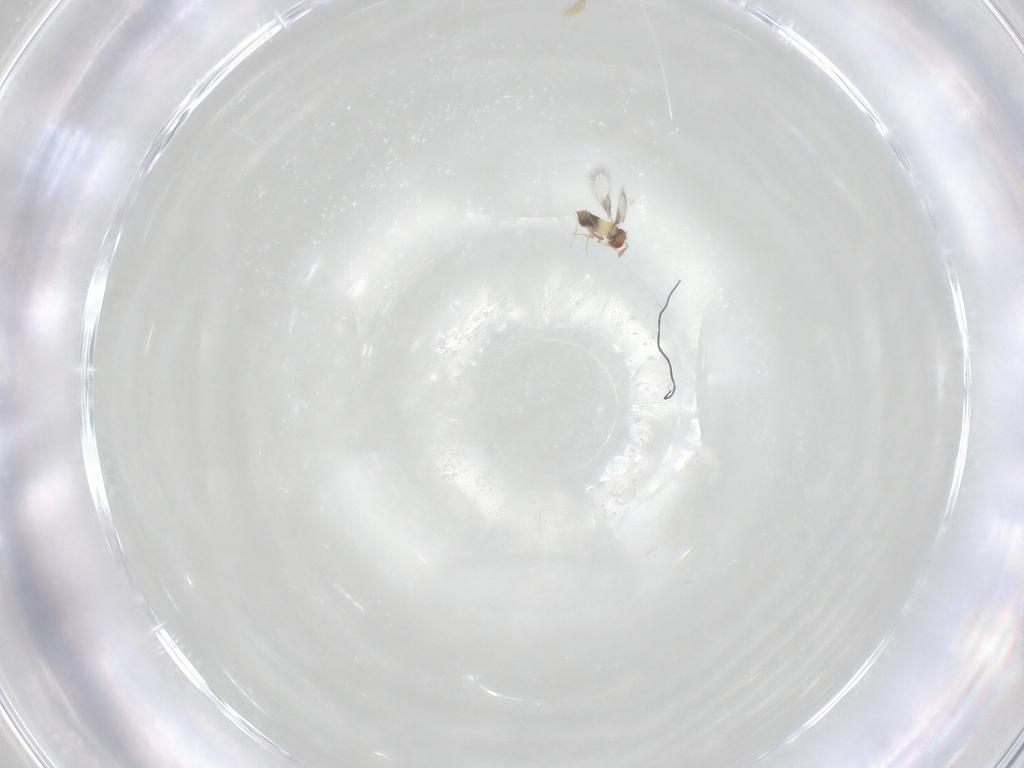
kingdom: Animalia
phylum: Arthropoda
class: Insecta
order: Hymenoptera
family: Trichogrammatidae
